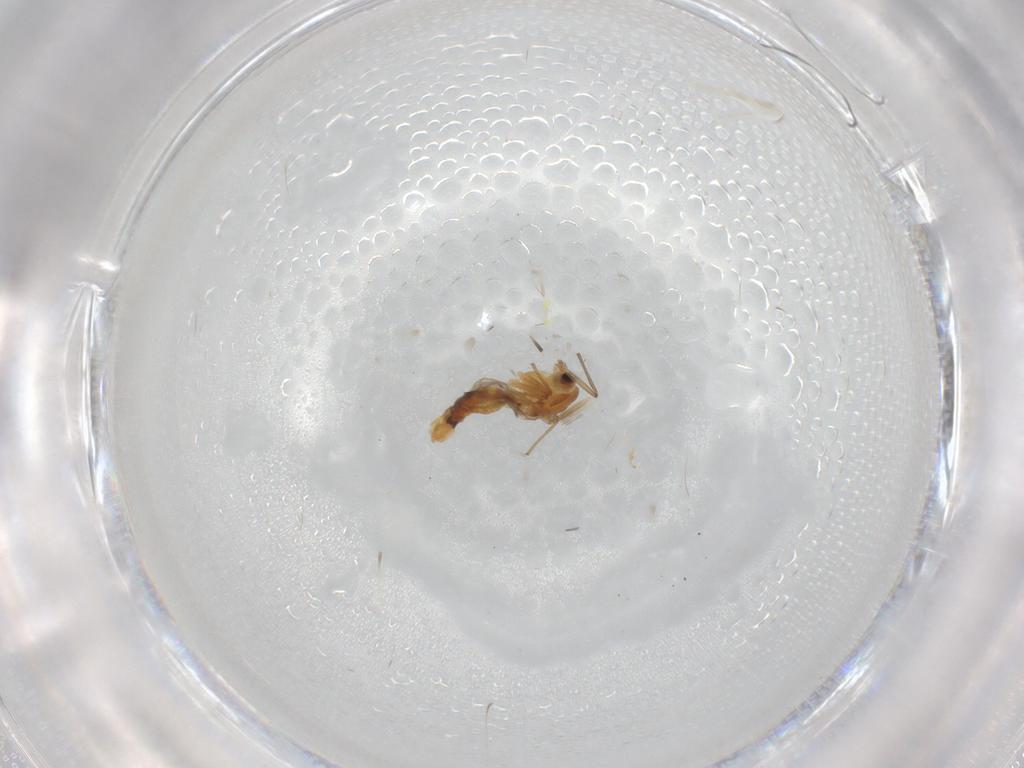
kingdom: Animalia
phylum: Arthropoda
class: Insecta
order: Diptera
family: Chironomidae
